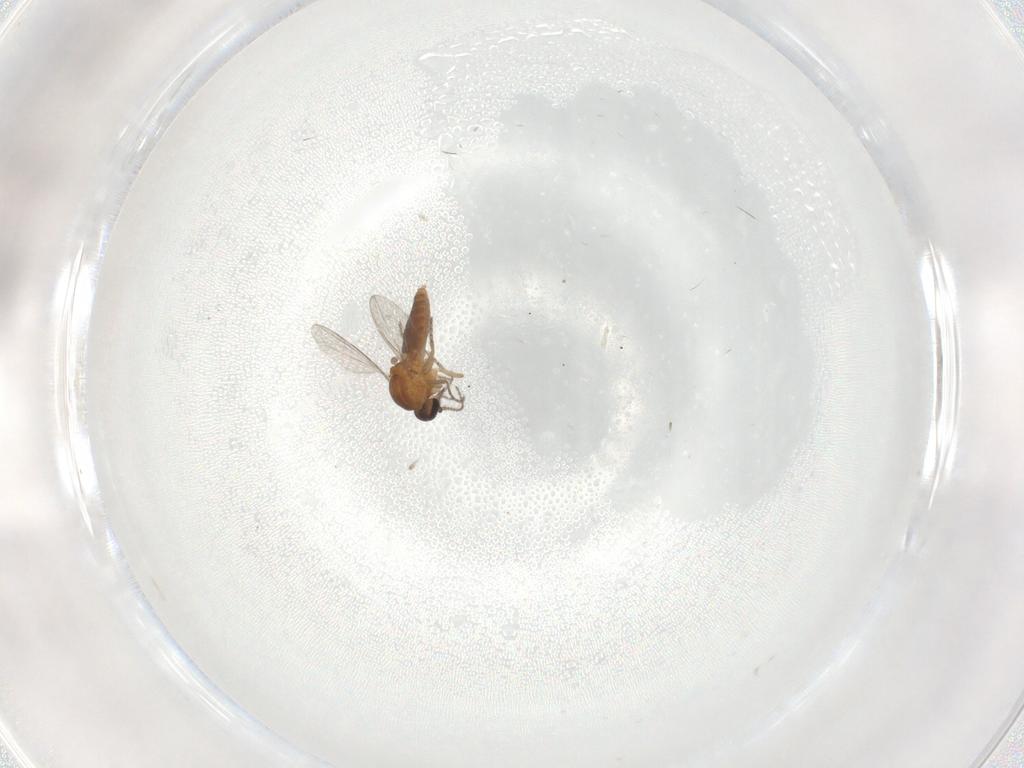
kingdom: Animalia
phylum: Arthropoda
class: Insecta
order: Diptera
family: Ceratopogonidae
